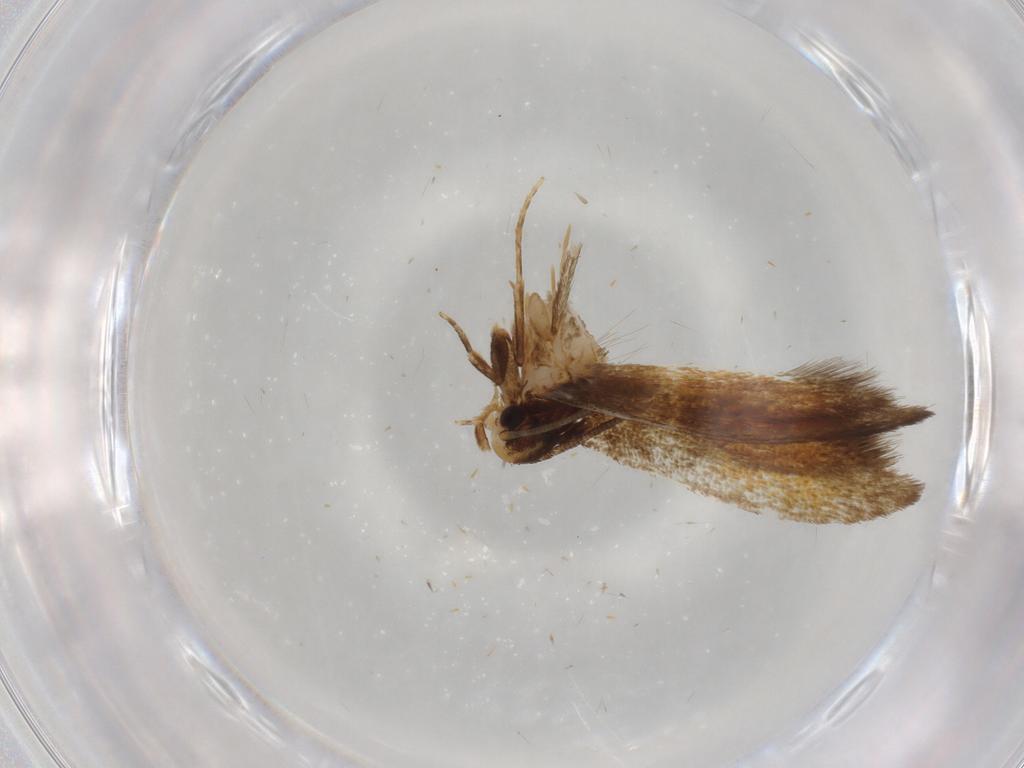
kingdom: Animalia
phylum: Arthropoda
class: Insecta
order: Lepidoptera
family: Tineidae
